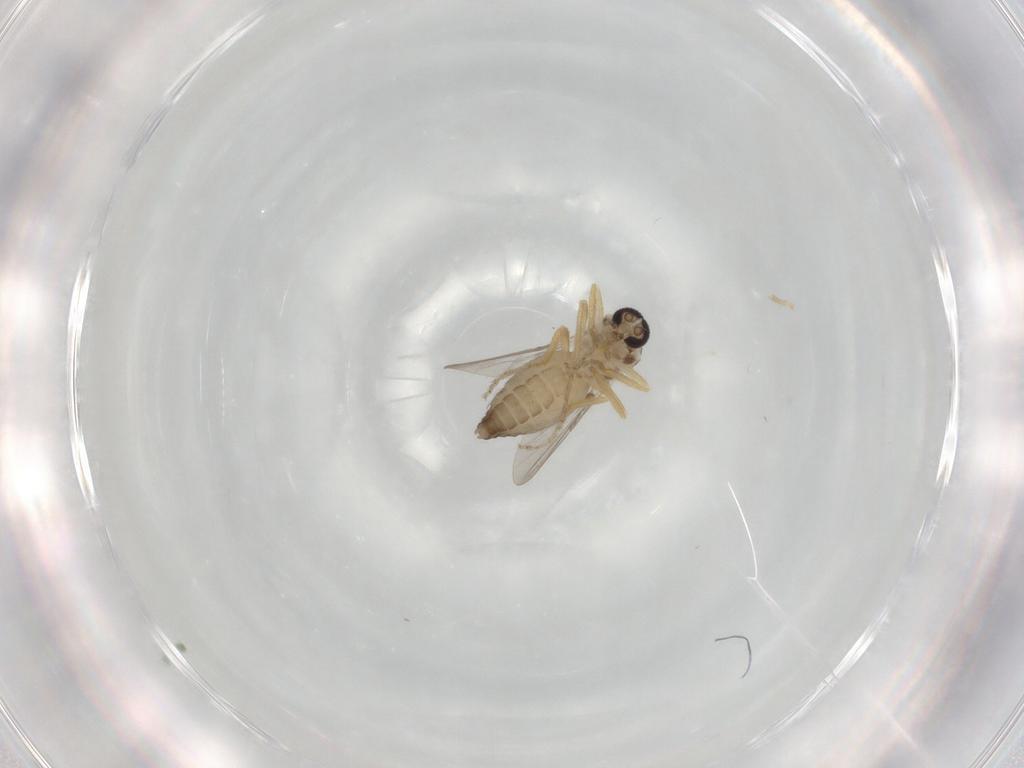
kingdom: Animalia
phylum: Arthropoda
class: Insecta
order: Diptera
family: Ceratopogonidae
